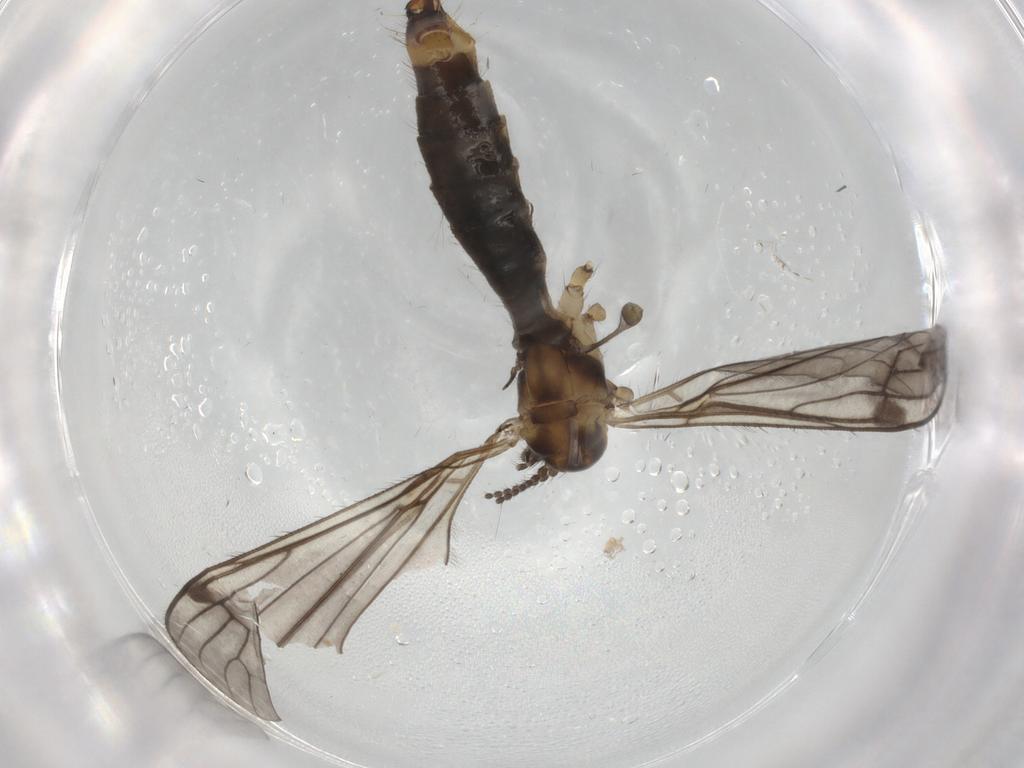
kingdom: Animalia
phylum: Arthropoda
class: Insecta
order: Diptera
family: Limoniidae
